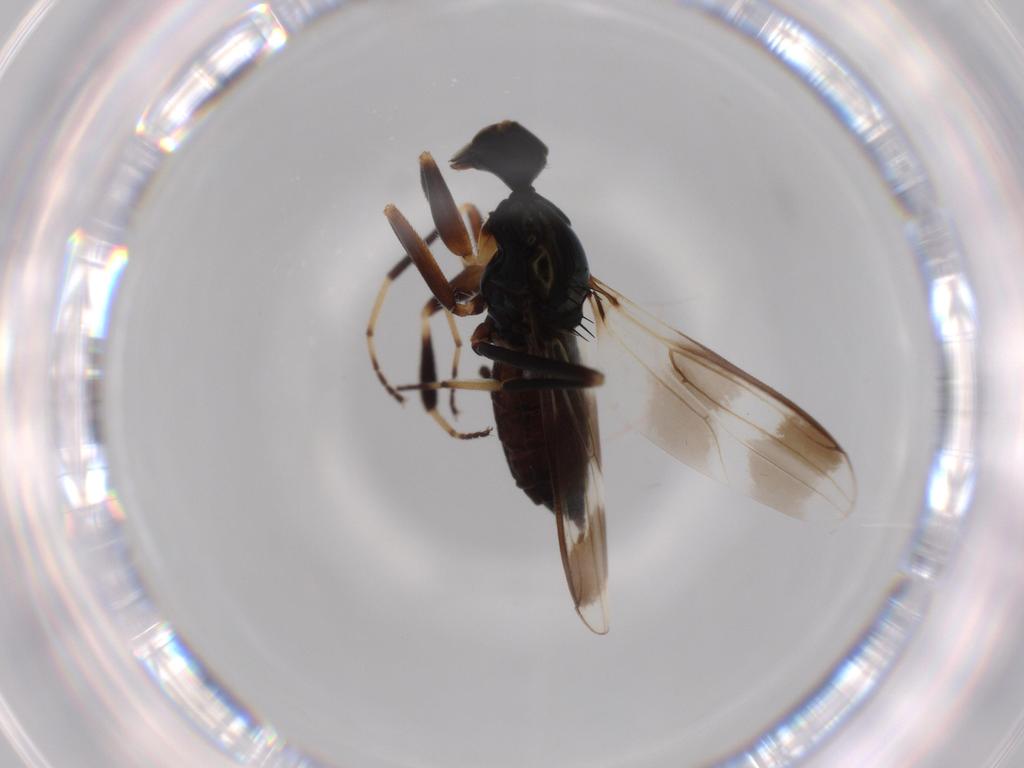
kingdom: Animalia
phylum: Arthropoda
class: Insecta
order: Diptera
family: Hybotidae
